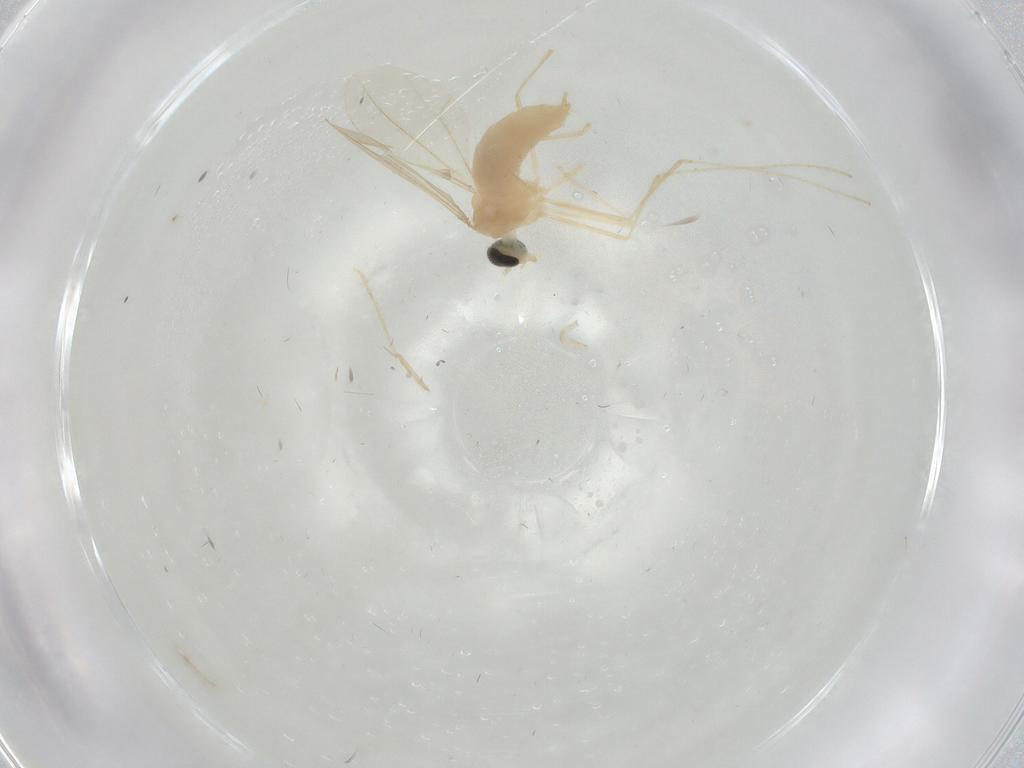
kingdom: Animalia
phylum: Arthropoda
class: Insecta
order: Diptera
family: Cecidomyiidae
